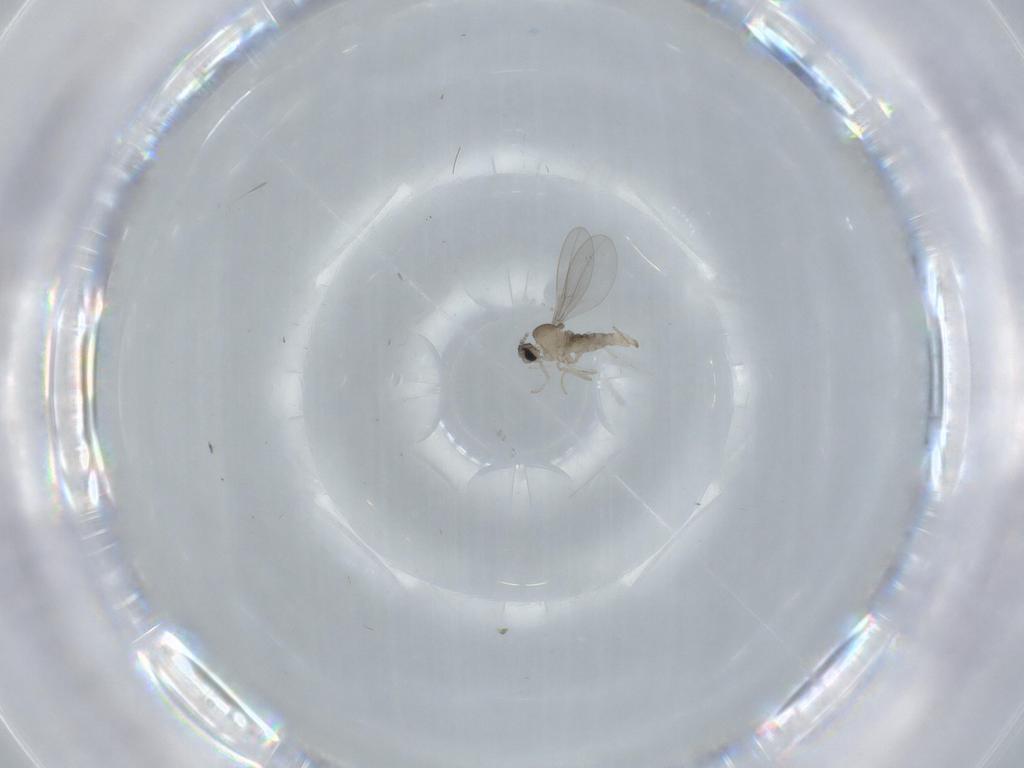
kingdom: Animalia
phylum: Arthropoda
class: Insecta
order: Diptera
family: Cecidomyiidae
